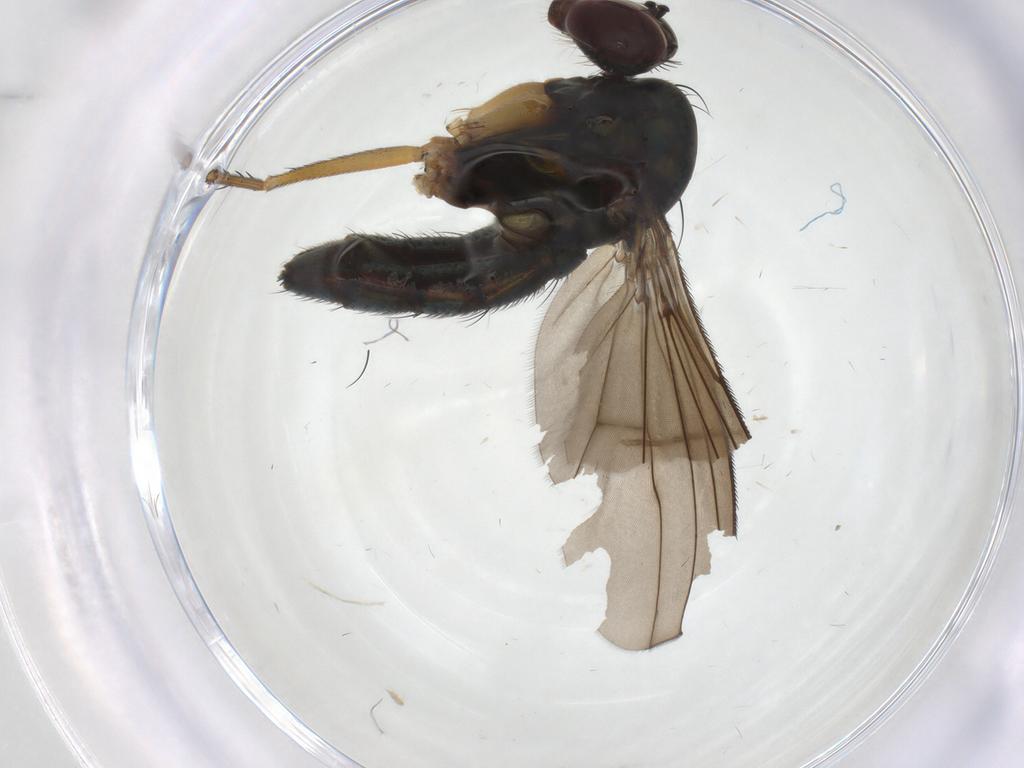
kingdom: Animalia
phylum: Arthropoda
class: Insecta
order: Diptera
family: Dolichopodidae
